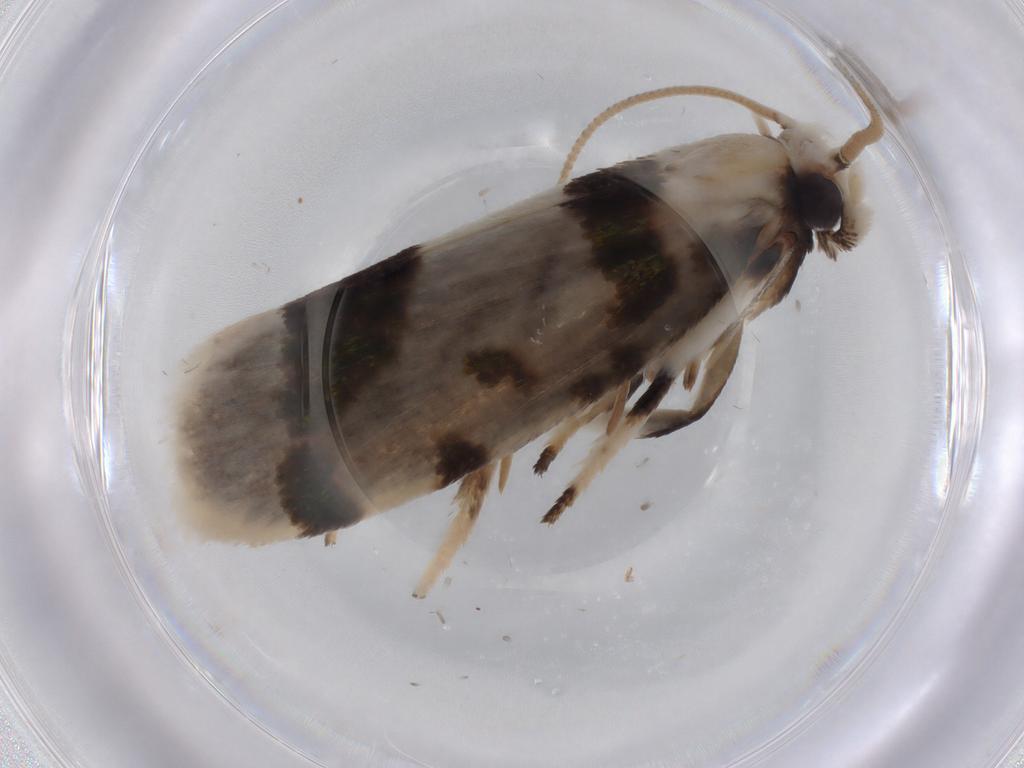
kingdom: Animalia
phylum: Arthropoda
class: Insecta
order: Lepidoptera
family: Tineidae
